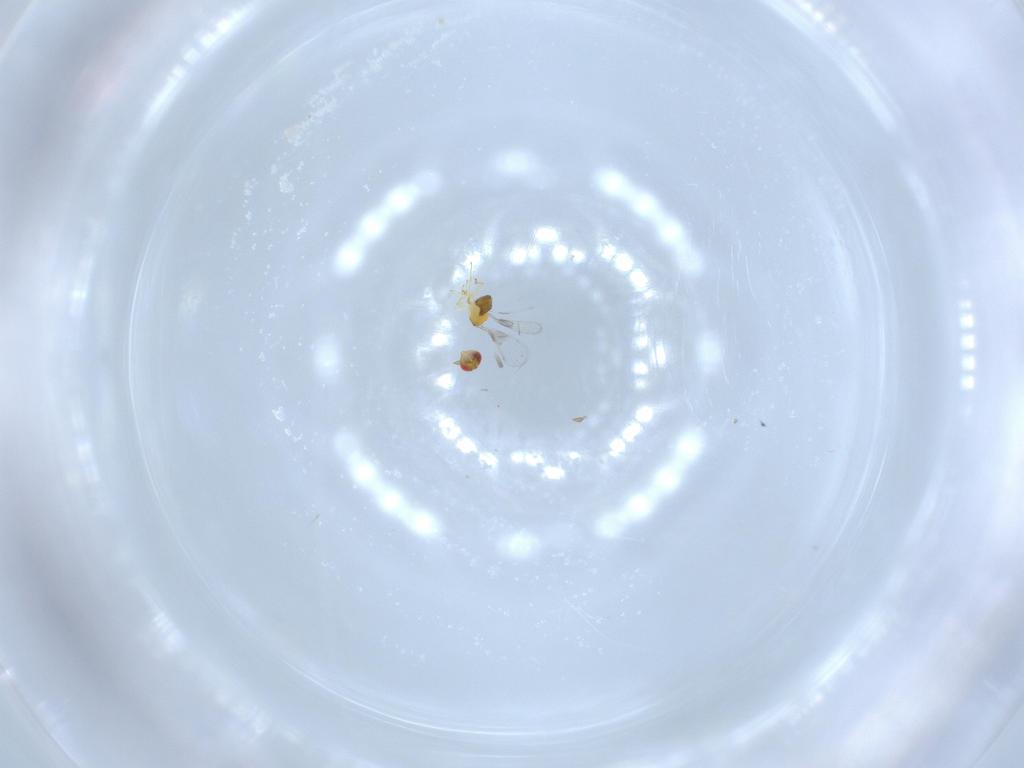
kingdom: Animalia
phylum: Arthropoda
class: Insecta
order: Hymenoptera
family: Trichogrammatidae
